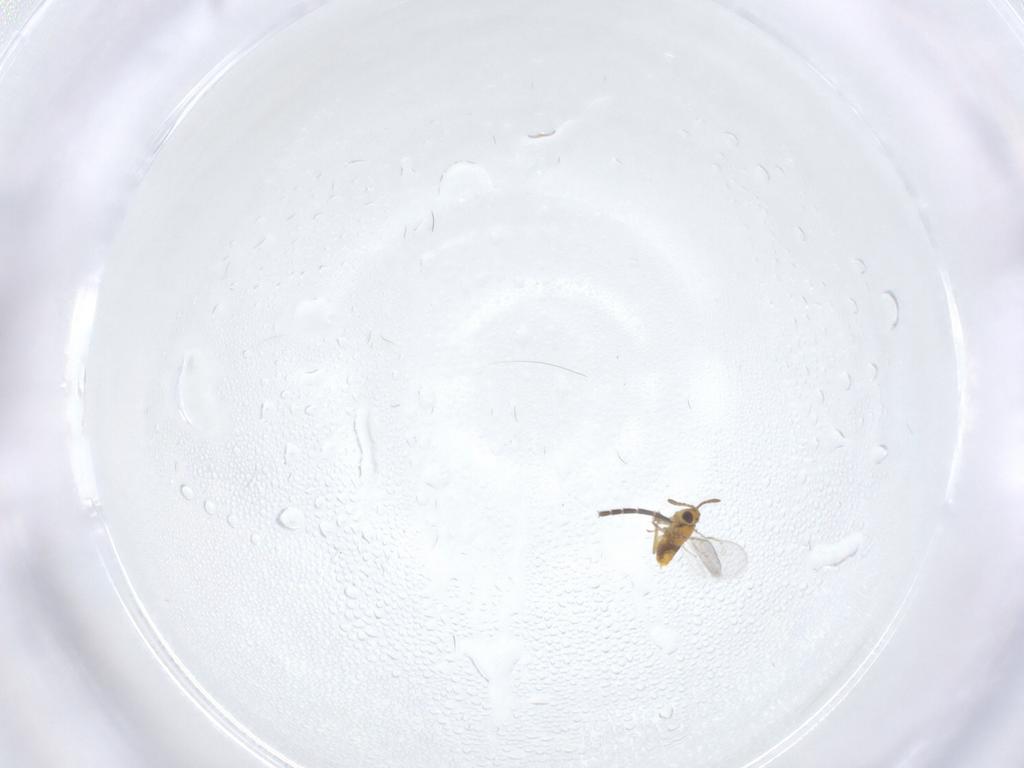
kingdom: Animalia
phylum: Arthropoda
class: Insecta
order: Hymenoptera
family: Aphelinidae
